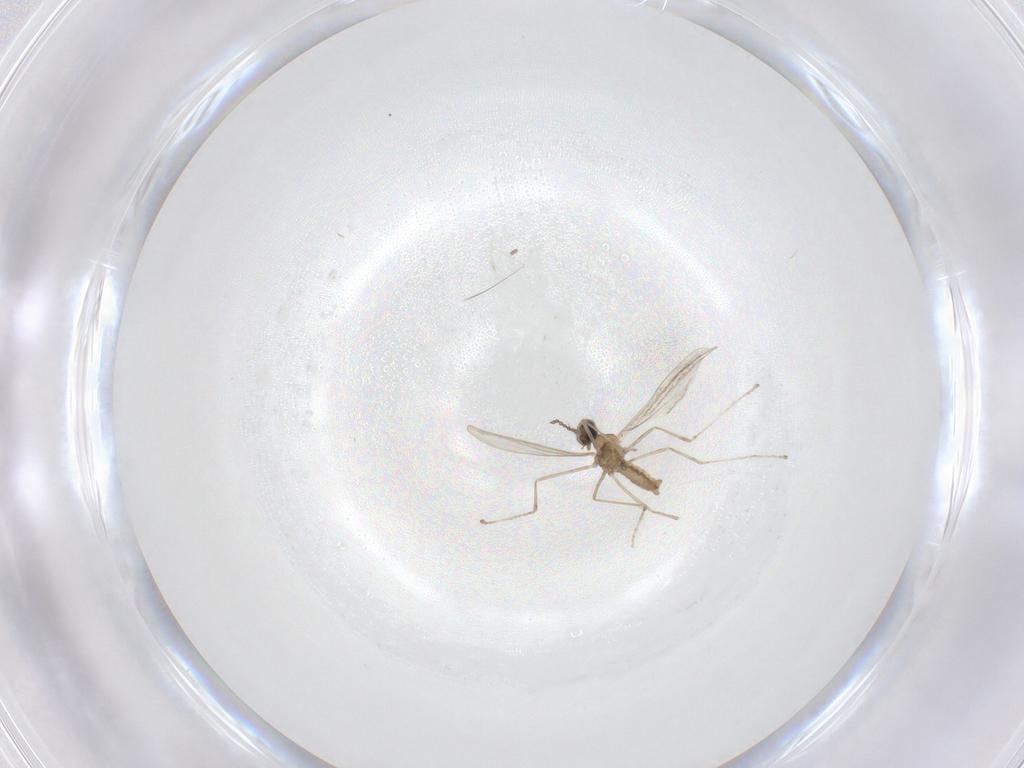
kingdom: Animalia
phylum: Arthropoda
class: Insecta
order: Diptera
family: Cecidomyiidae
